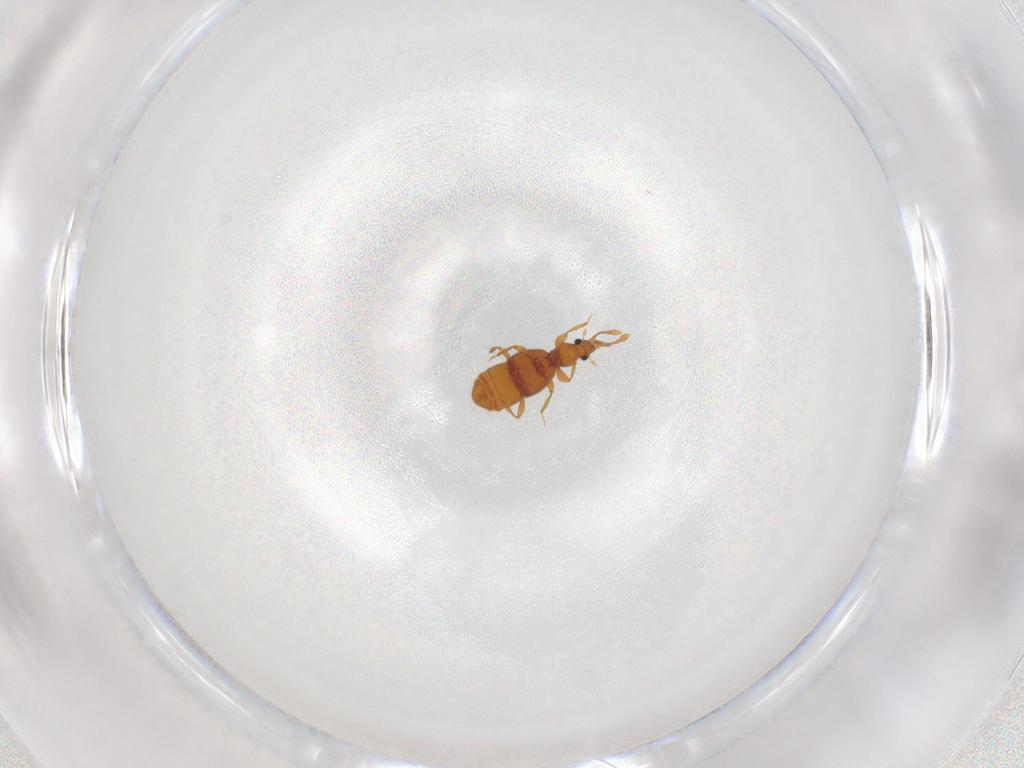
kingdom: Animalia
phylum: Arthropoda
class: Insecta
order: Coleoptera
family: Staphylinidae
